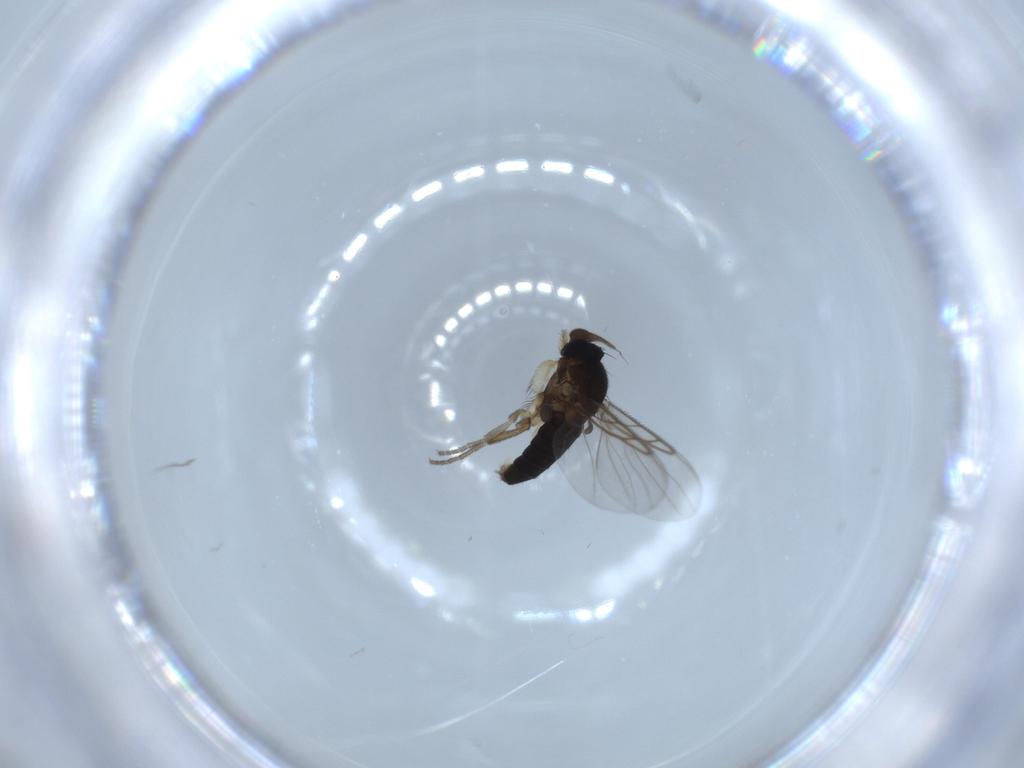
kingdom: Animalia
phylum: Arthropoda
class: Insecta
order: Diptera
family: Phoridae
